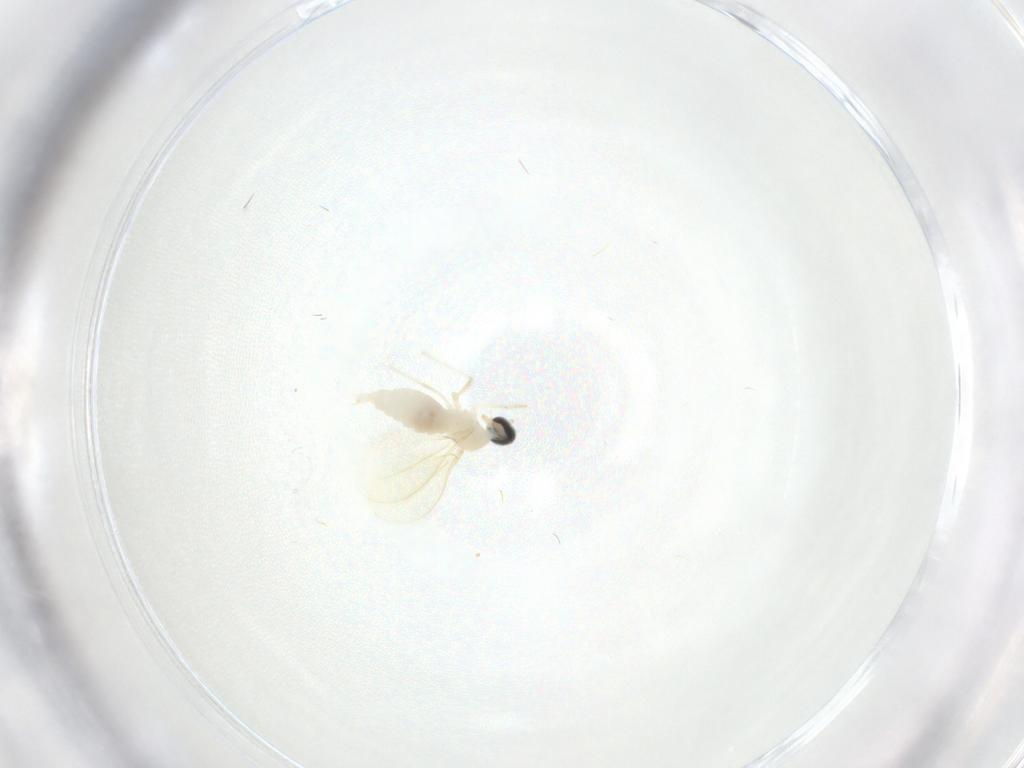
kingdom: Animalia
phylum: Arthropoda
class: Insecta
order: Diptera
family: Cecidomyiidae
